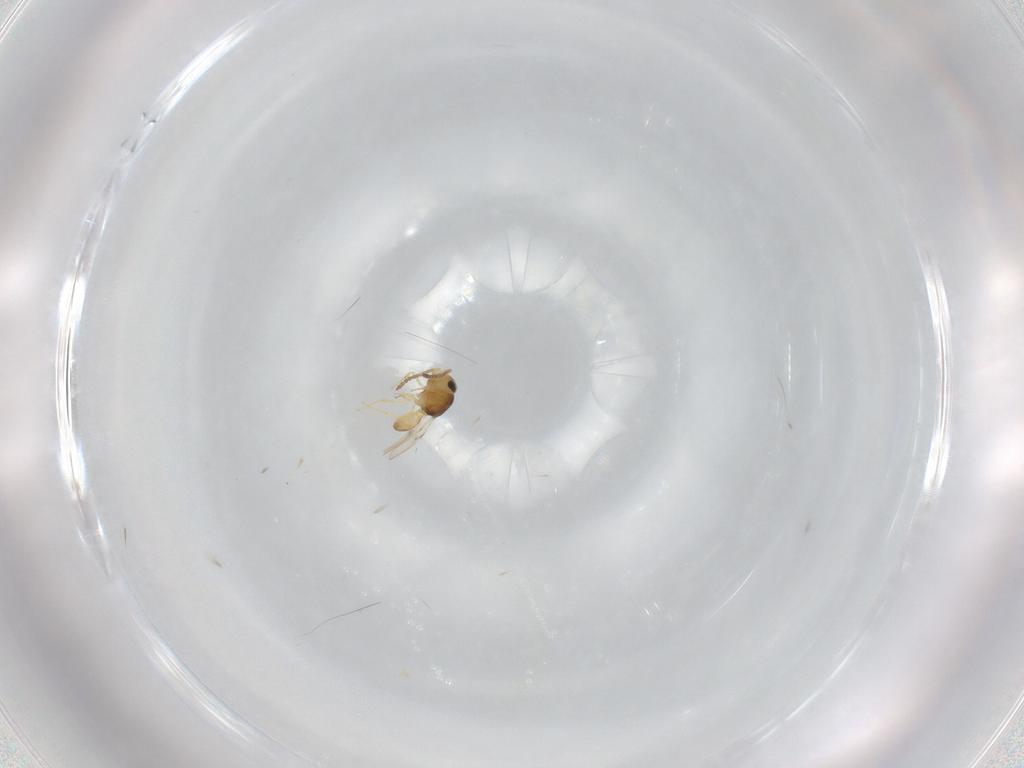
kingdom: Animalia
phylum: Arthropoda
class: Insecta
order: Hymenoptera
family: Scelionidae
